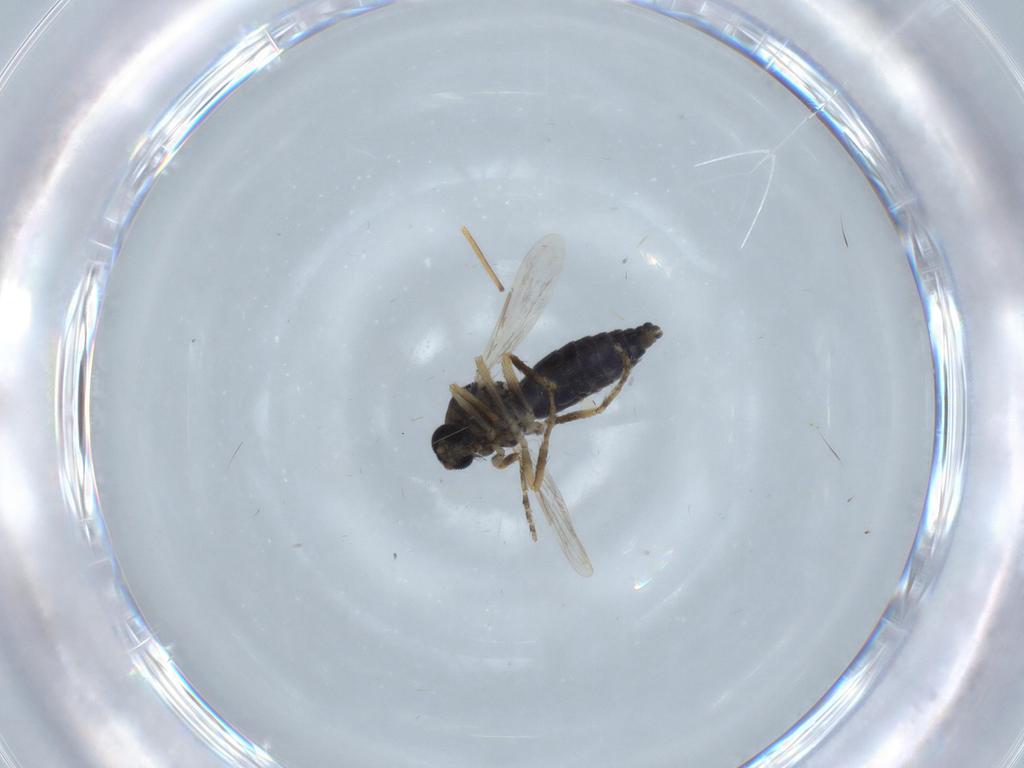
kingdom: Animalia
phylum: Arthropoda
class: Insecta
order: Diptera
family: Ceratopogonidae
